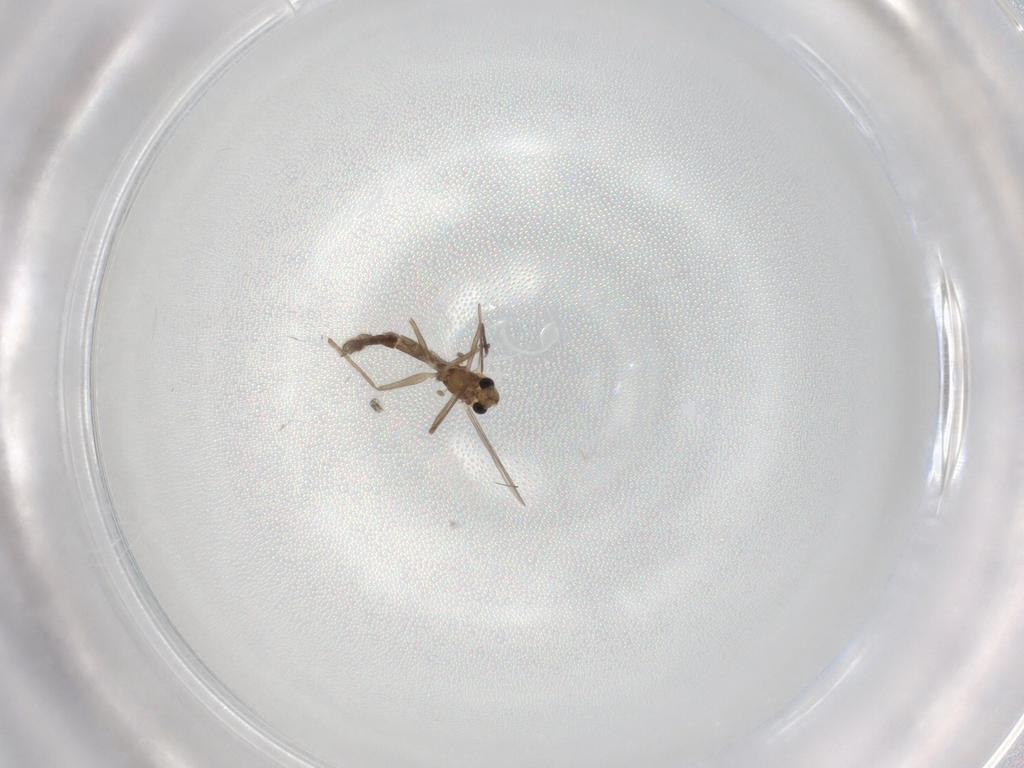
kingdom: Animalia
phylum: Arthropoda
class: Insecta
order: Diptera
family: Chironomidae
